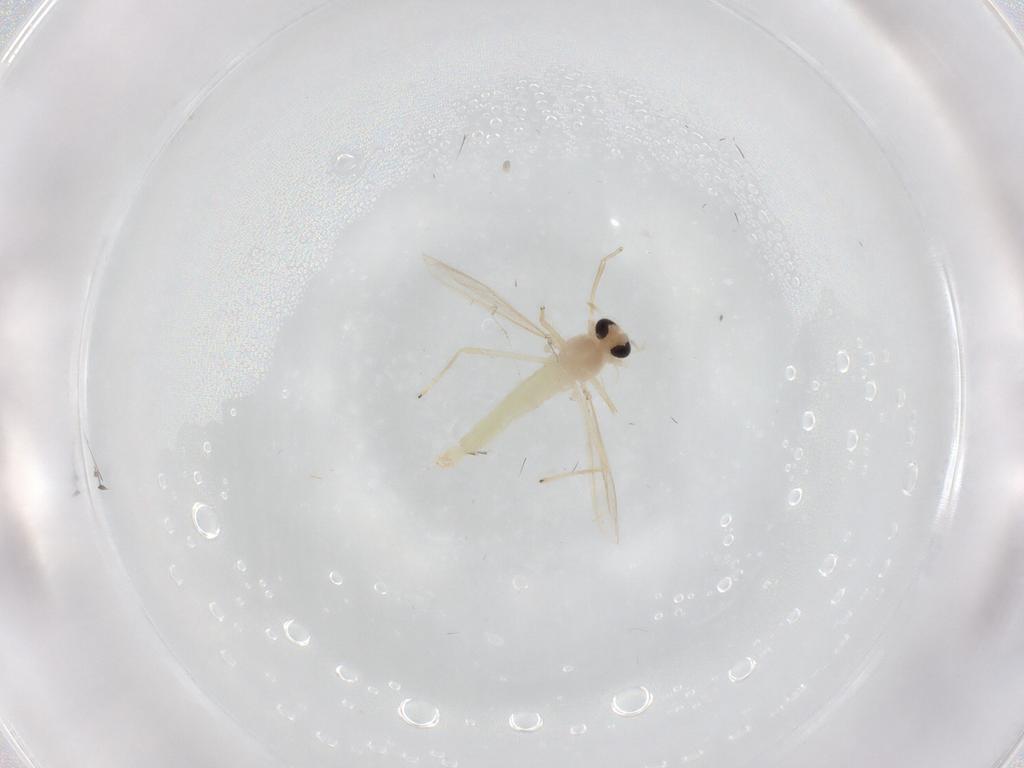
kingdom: Animalia
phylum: Arthropoda
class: Insecta
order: Diptera
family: Chironomidae
